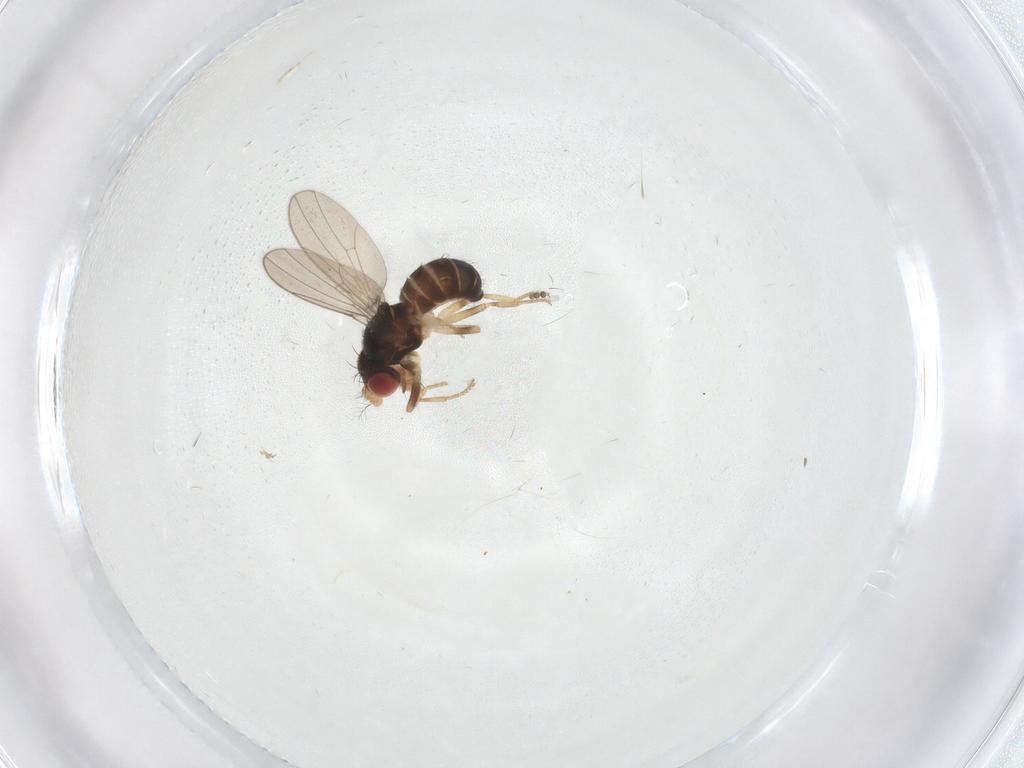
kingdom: Animalia
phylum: Arthropoda
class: Insecta
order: Diptera
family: Drosophilidae
